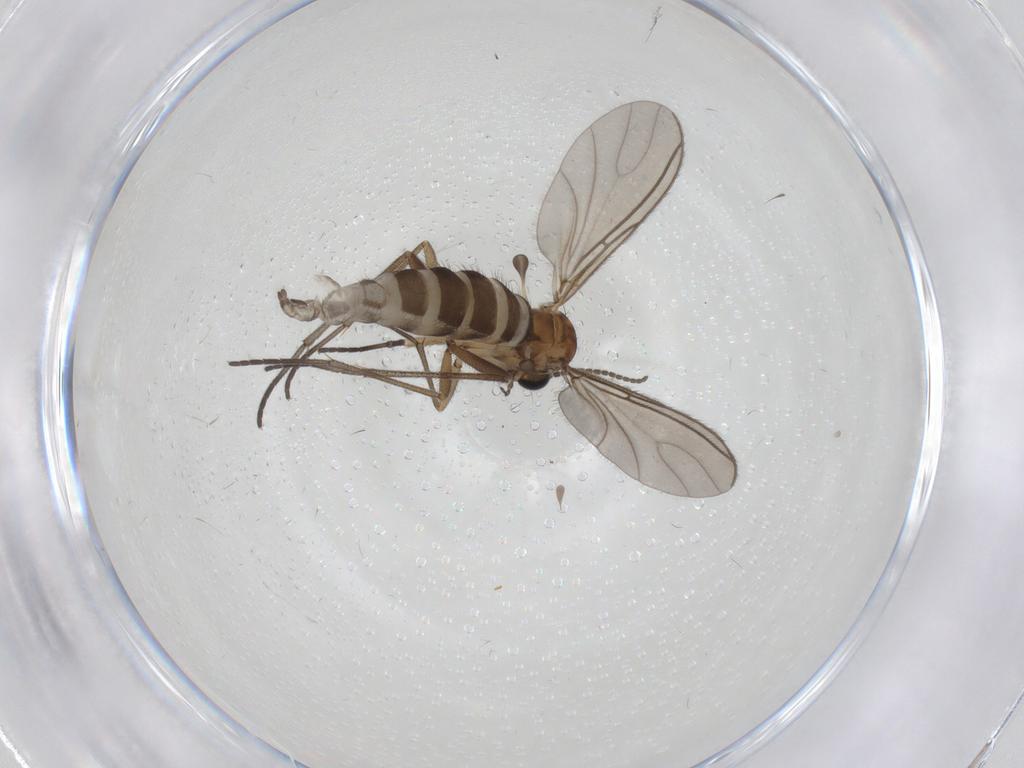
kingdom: Animalia
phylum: Arthropoda
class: Insecta
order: Diptera
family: Sciaridae
